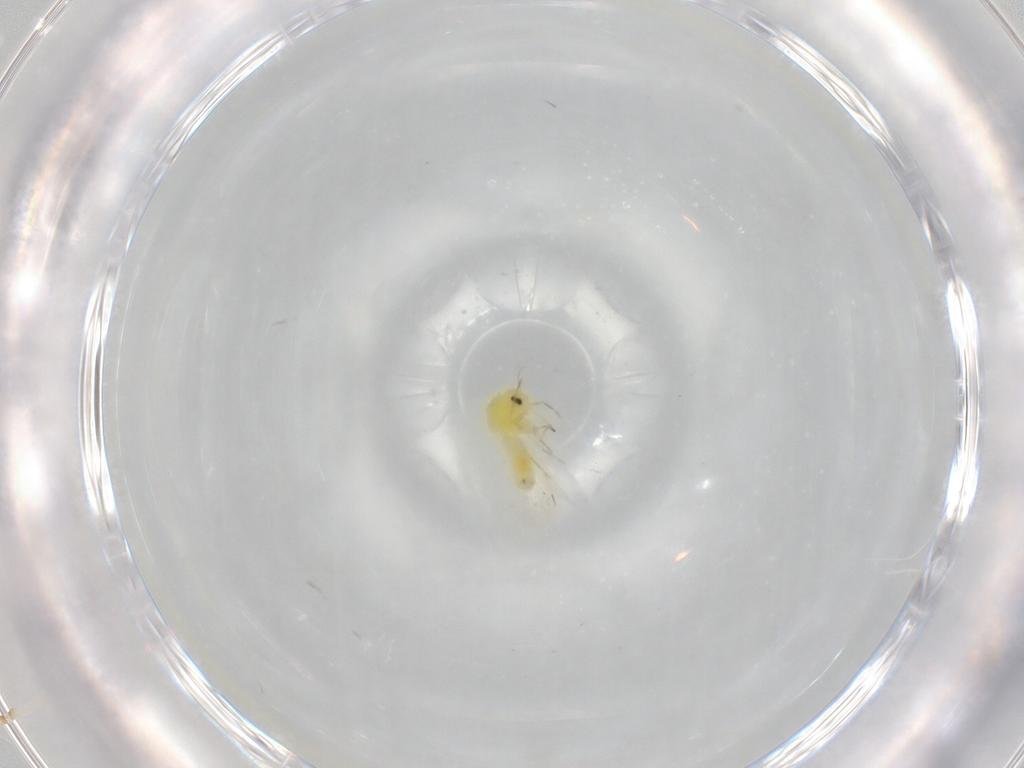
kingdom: Animalia
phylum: Arthropoda
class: Insecta
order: Hemiptera
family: Aleyrodidae
